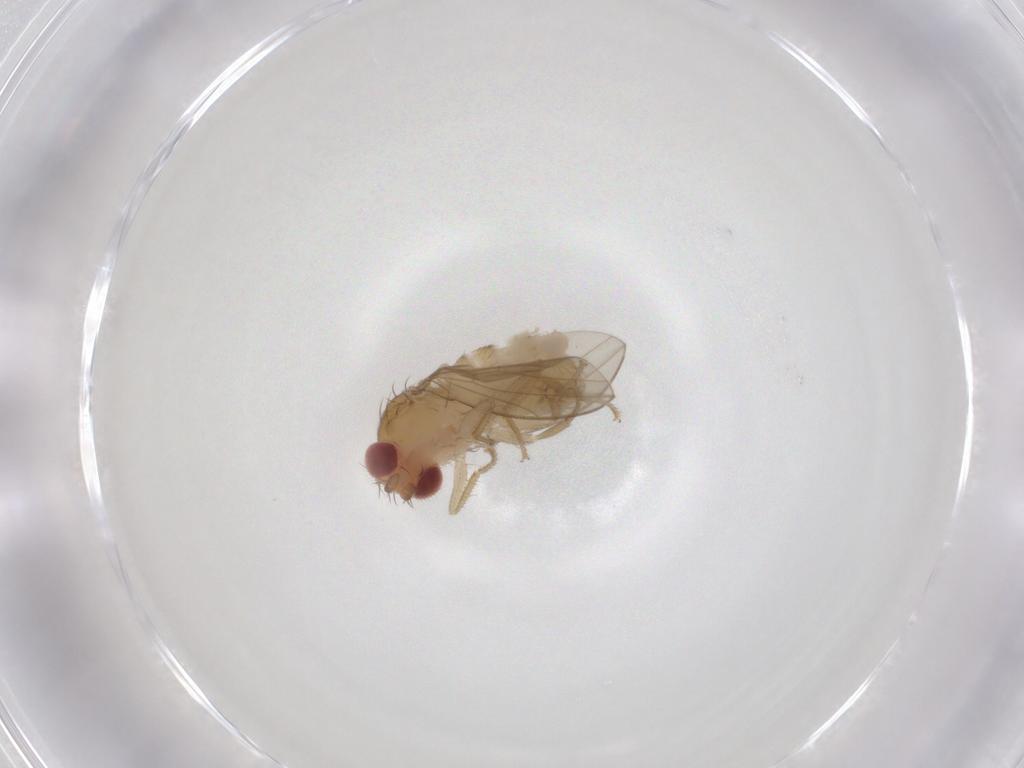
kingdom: Animalia
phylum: Arthropoda
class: Insecta
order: Diptera
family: Drosophilidae
